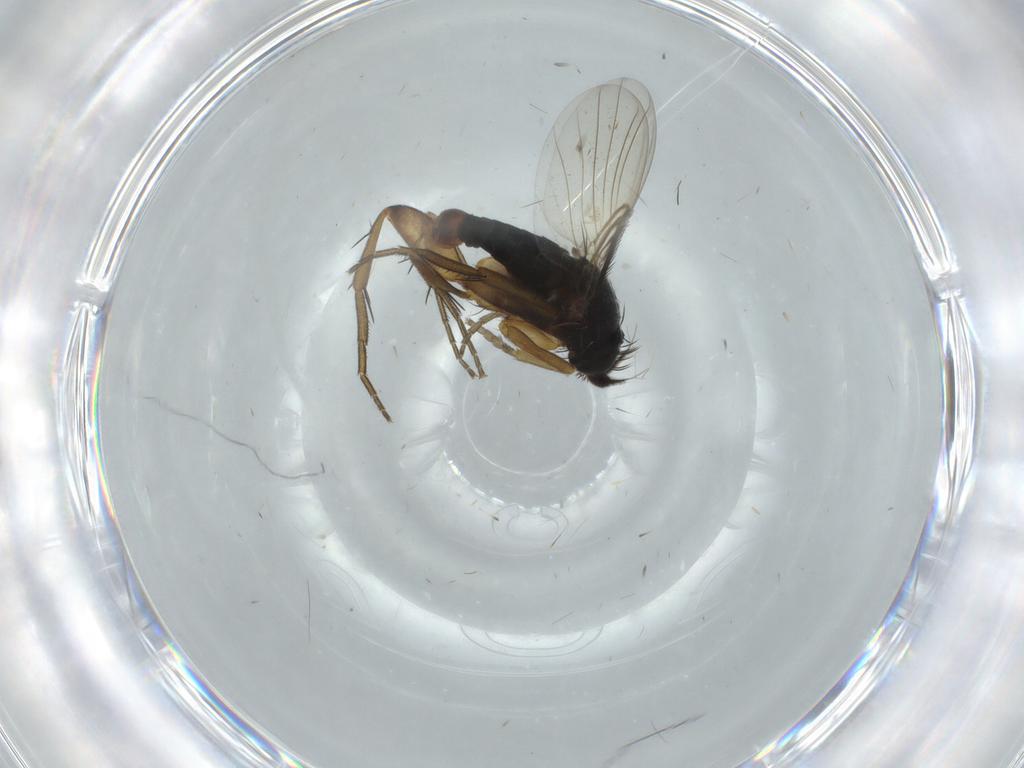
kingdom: Animalia
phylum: Arthropoda
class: Insecta
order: Diptera
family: Phoridae
